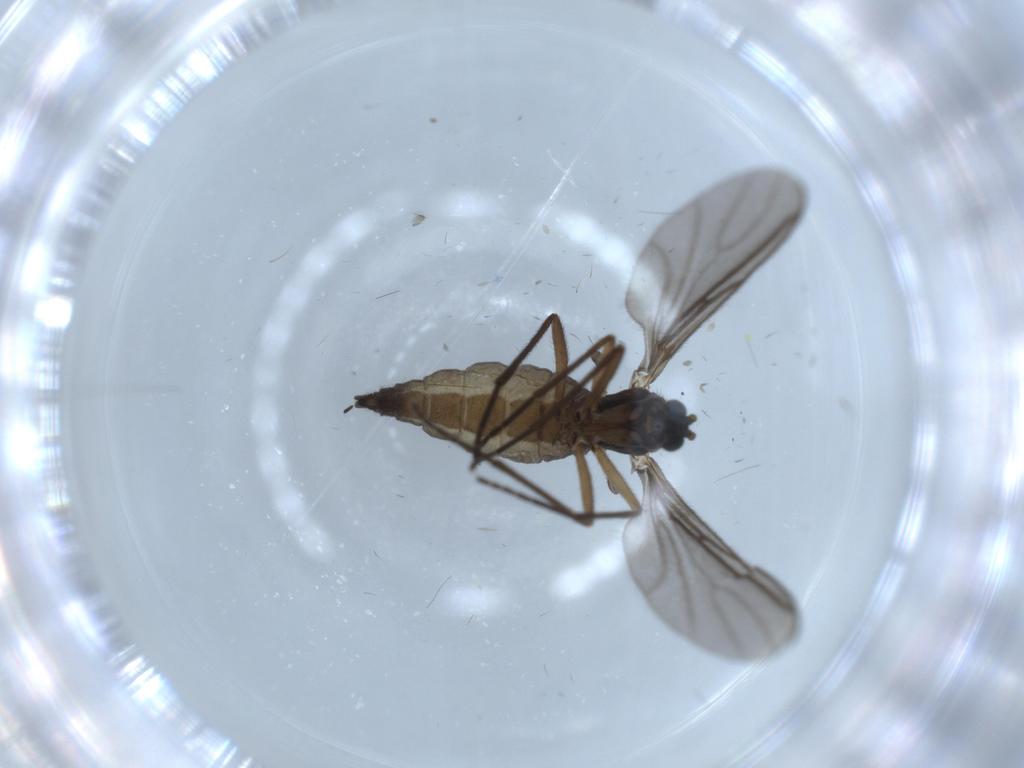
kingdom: Animalia
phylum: Arthropoda
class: Insecta
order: Diptera
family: Sciaridae
